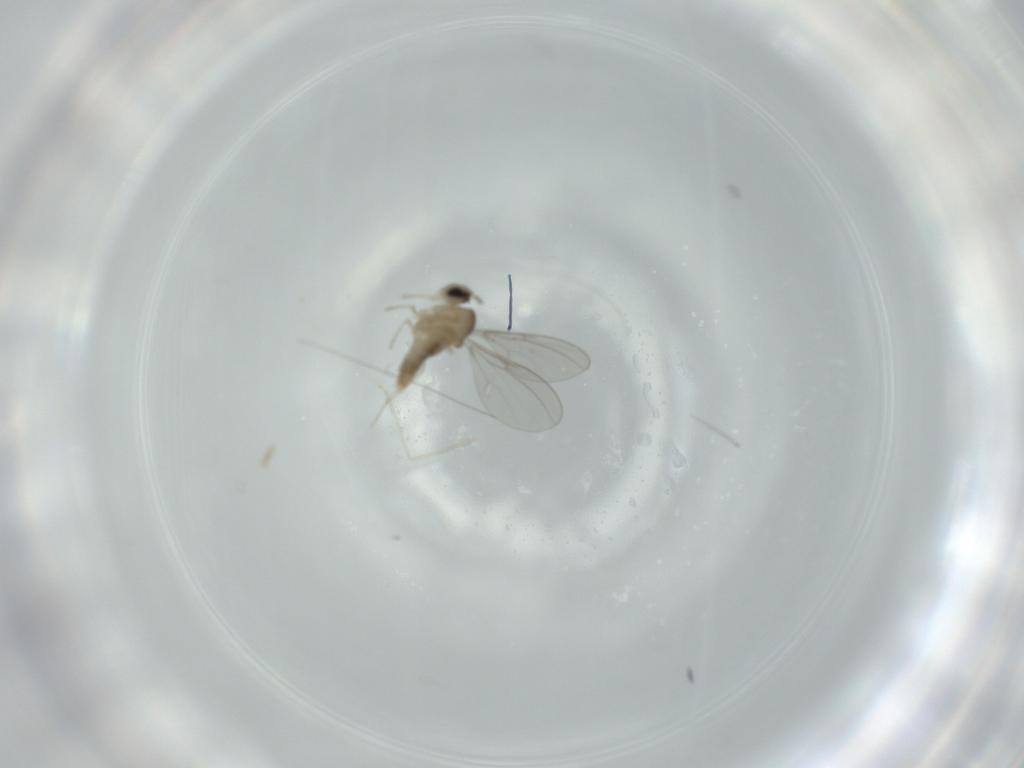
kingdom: Animalia
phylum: Arthropoda
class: Insecta
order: Diptera
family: Cecidomyiidae
